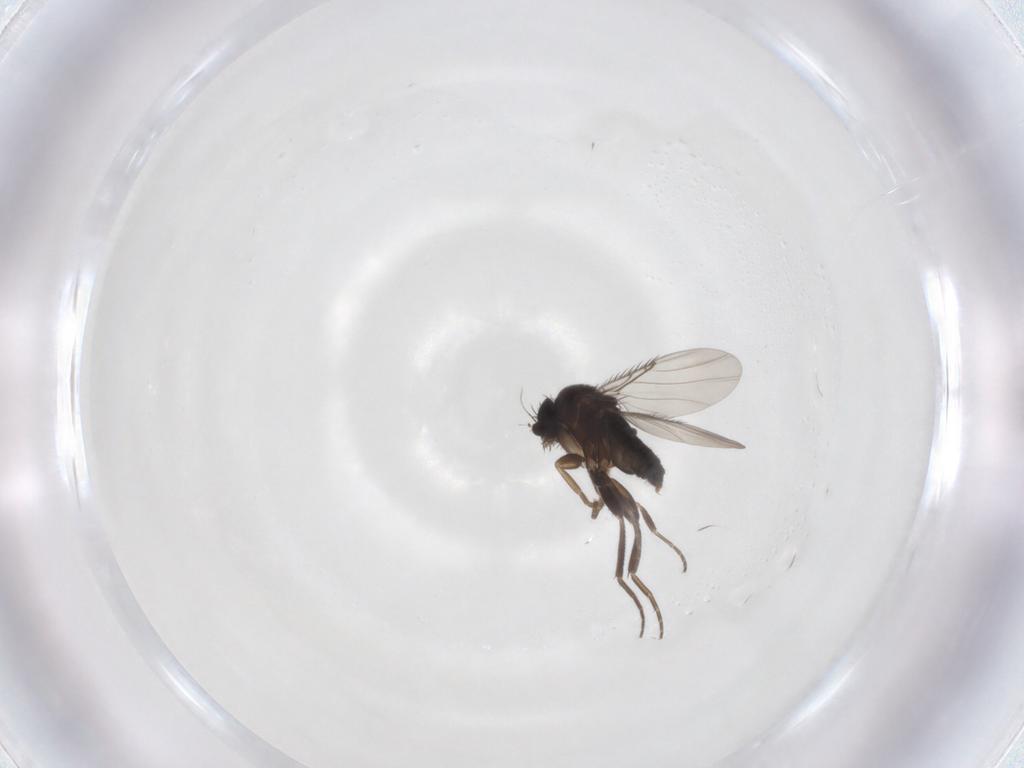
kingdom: Animalia
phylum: Arthropoda
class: Insecta
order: Diptera
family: Phoridae
